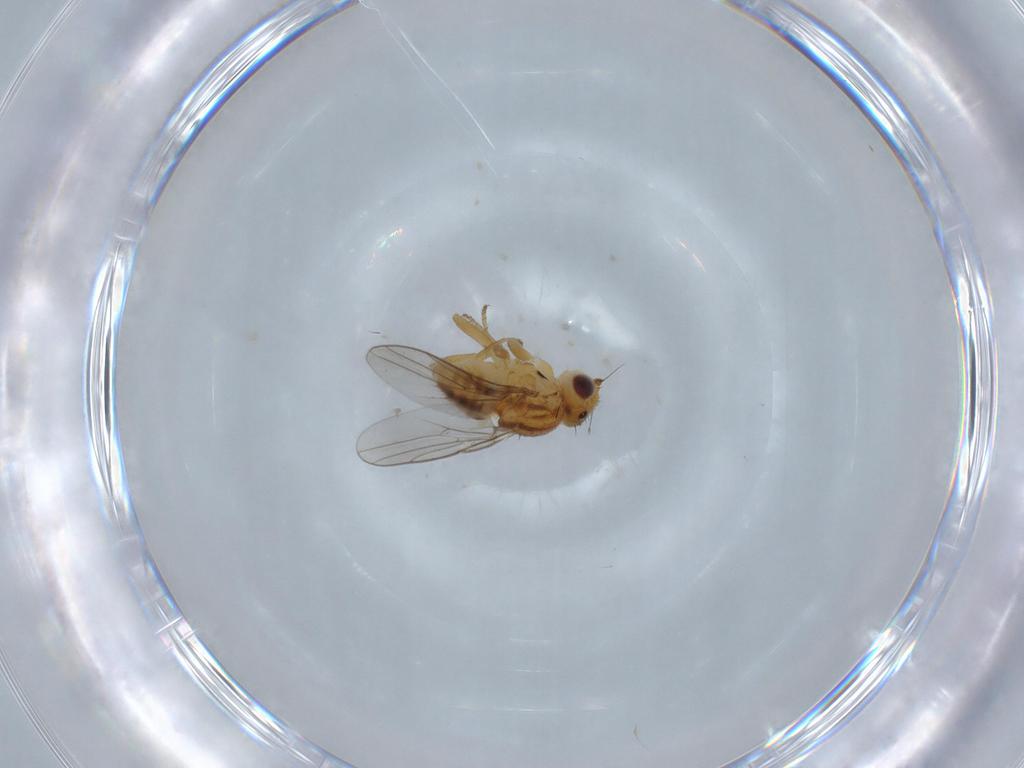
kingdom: Animalia
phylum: Arthropoda
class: Insecta
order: Diptera
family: Chloropidae
